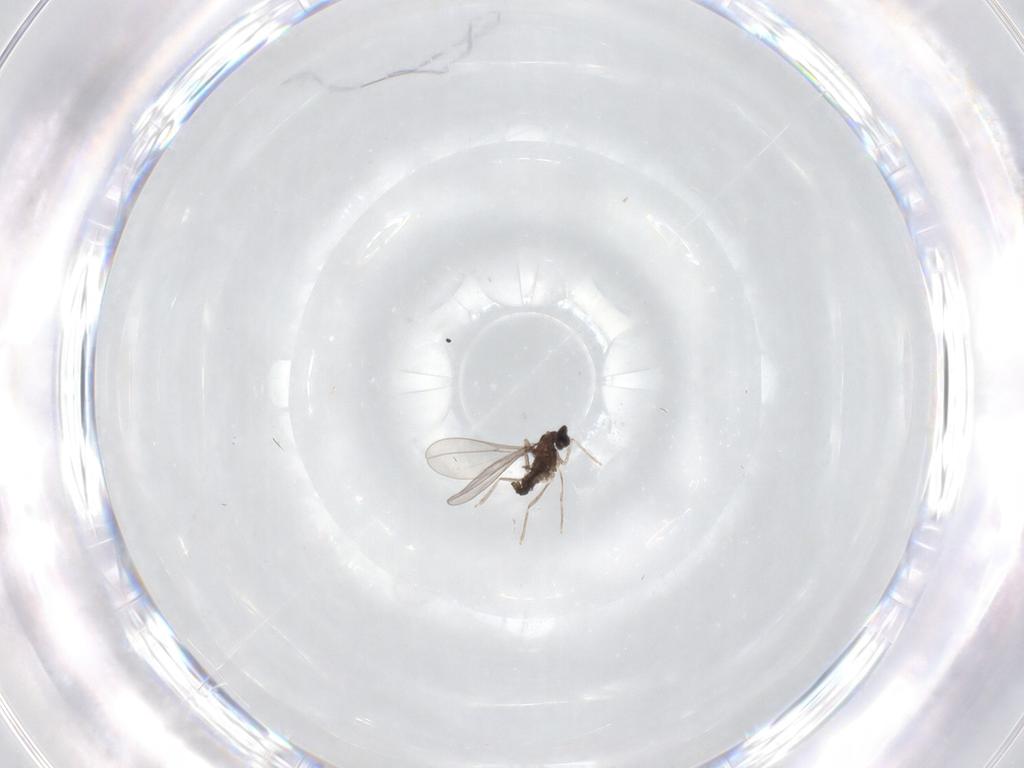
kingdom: Animalia
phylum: Arthropoda
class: Insecta
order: Diptera
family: Cecidomyiidae
